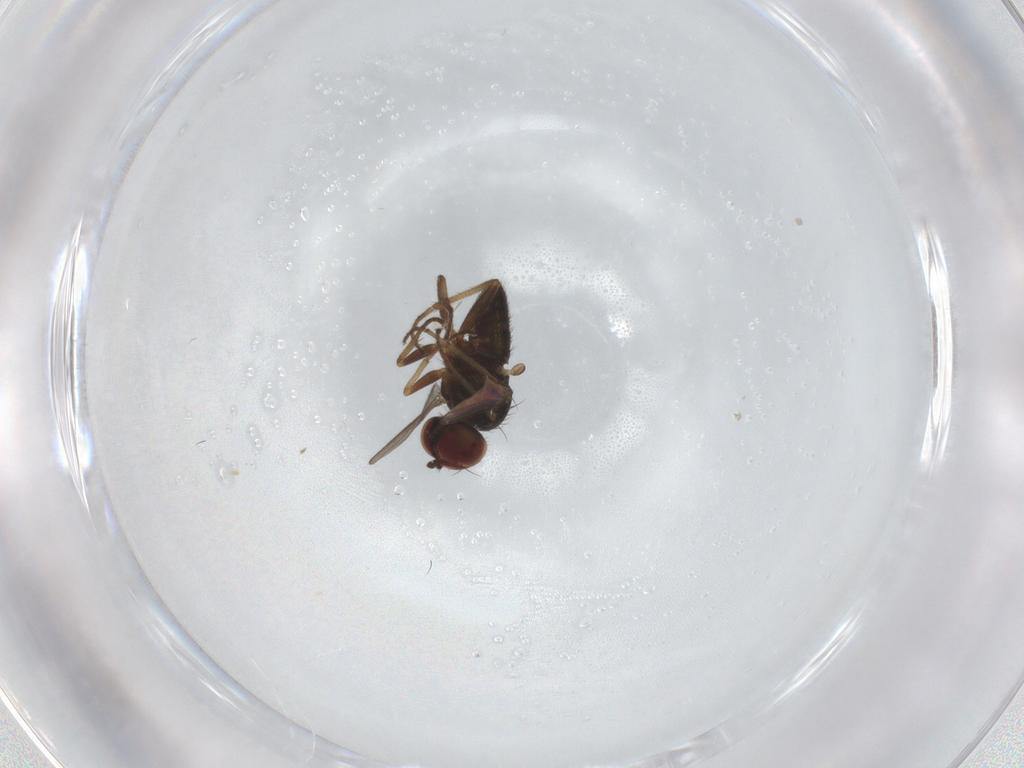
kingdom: Animalia
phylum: Arthropoda
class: Insecta
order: Diptera
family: Dolichopodidae
